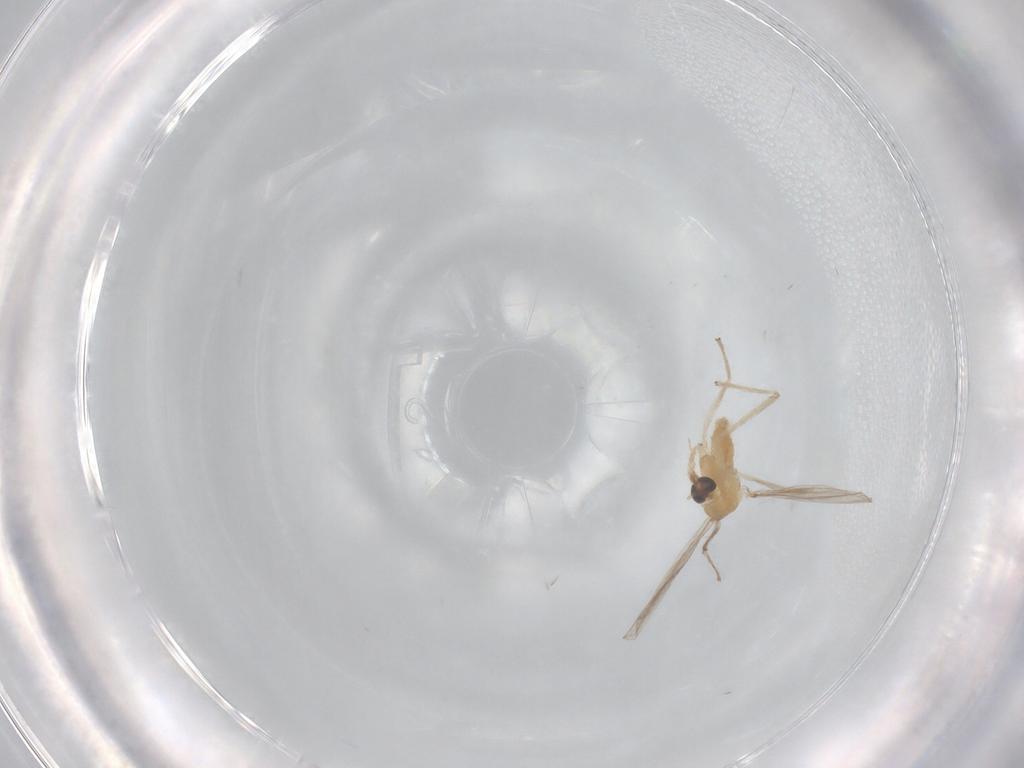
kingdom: Animalia
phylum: Arthropoda
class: Insecta
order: Diptera
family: Chironomidae
